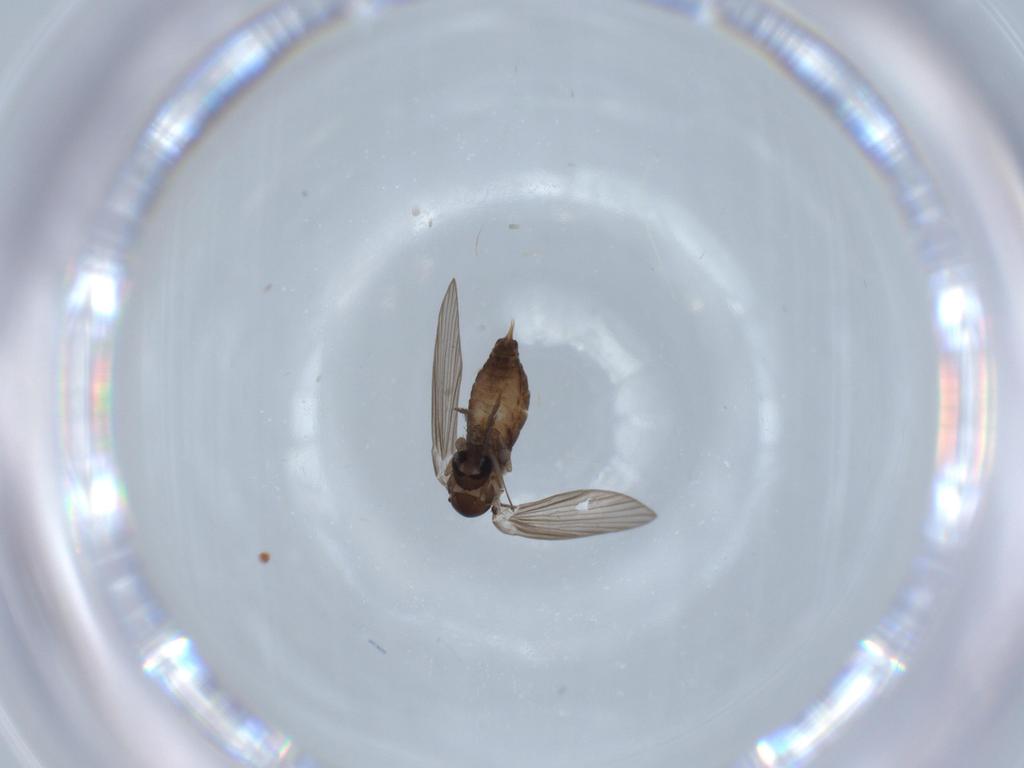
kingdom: Animalia
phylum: Arthropoda
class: Insecta
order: Diptera
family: Psychodidae
